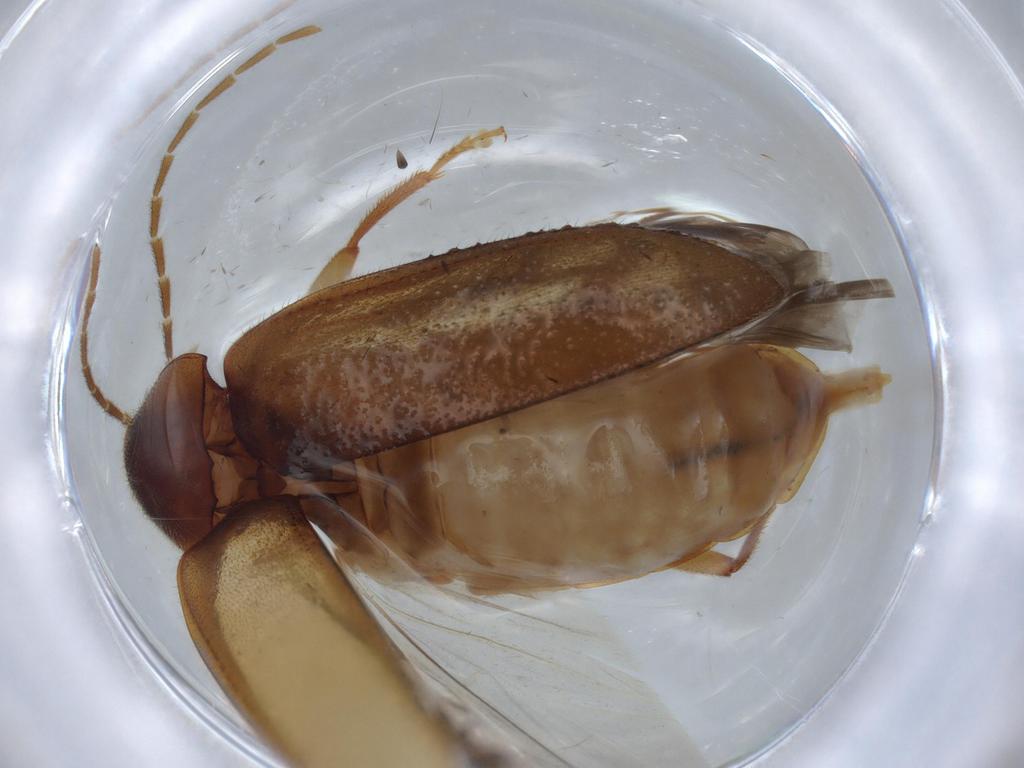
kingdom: Animalia
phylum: Arthropoda
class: Insecta
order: Coleoptera
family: Ptilodactylidae
